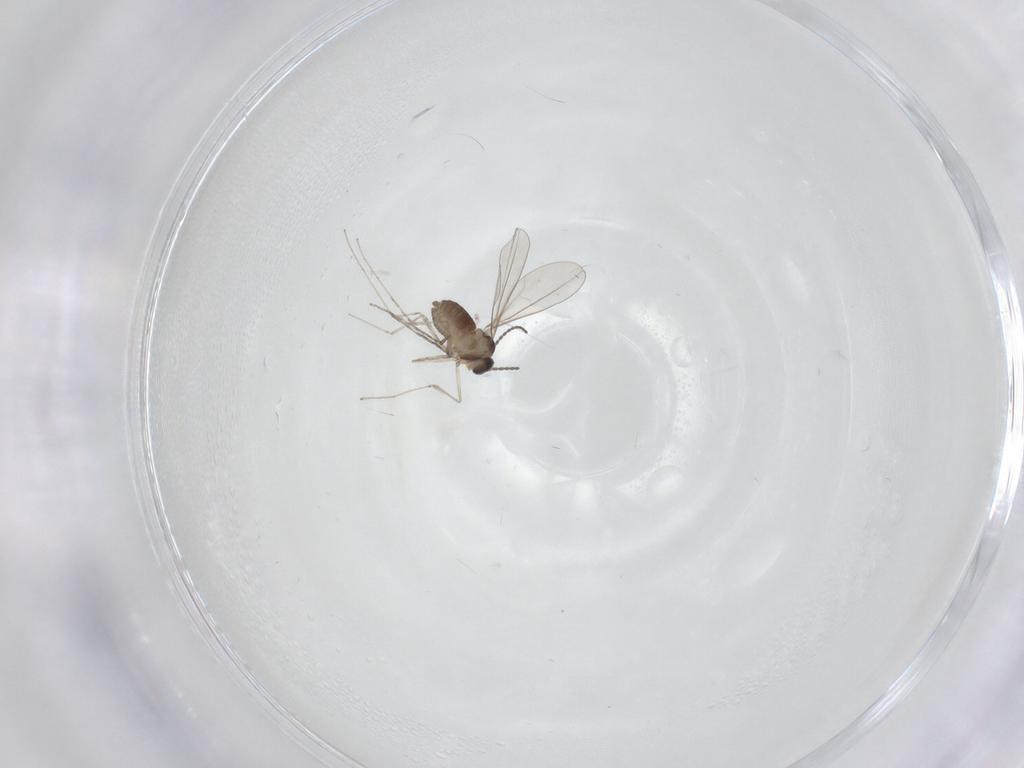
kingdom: Animalia
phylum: Arthropoda
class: Insecta
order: Diptera
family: Cecidomyiidae
